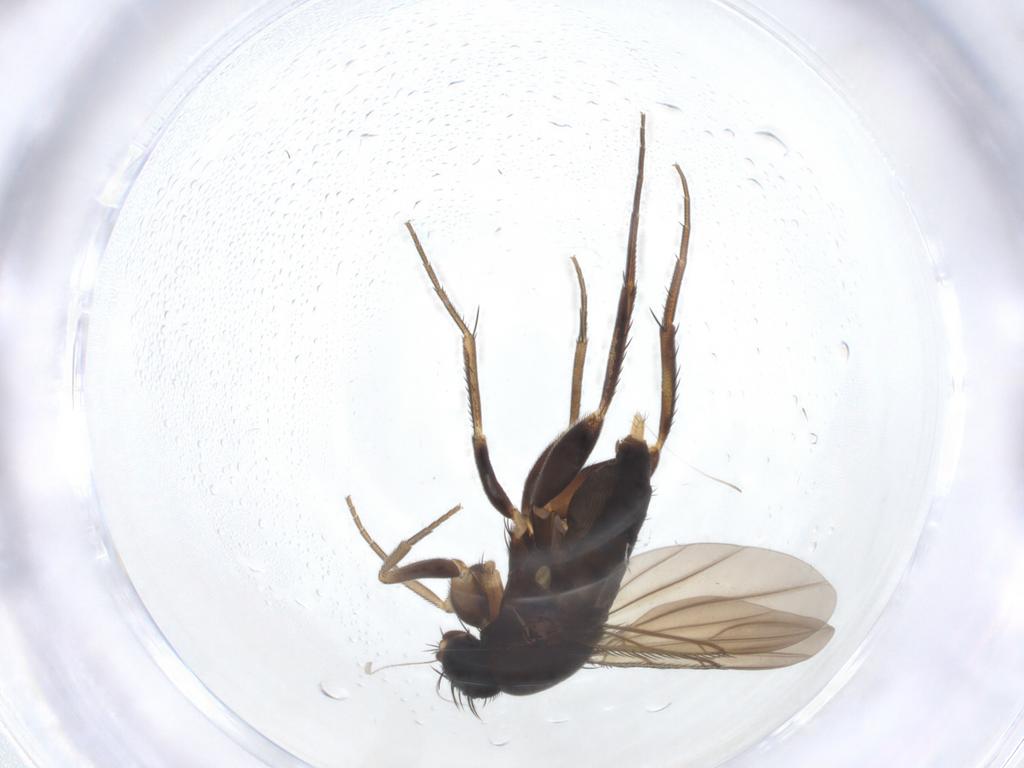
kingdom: Animalia
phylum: Arthropoda
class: Insecta
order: Diptera
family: Phoridae
